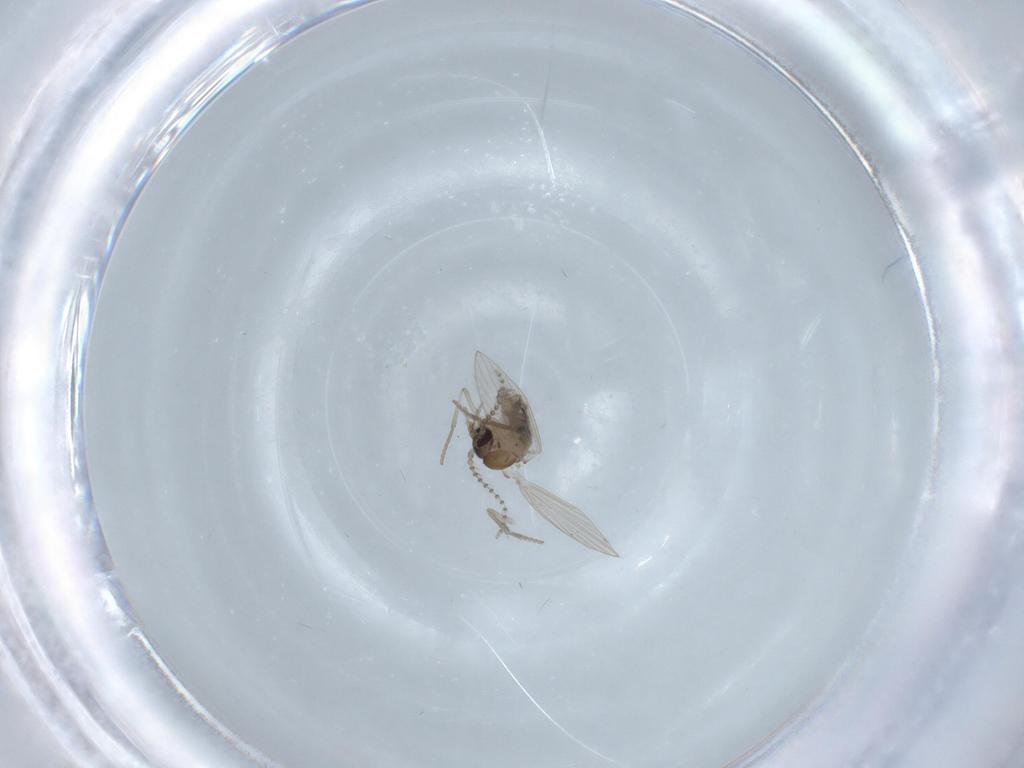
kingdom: Animalia
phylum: Arthropoda
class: Insecta
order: Diptera
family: Psychodidae
